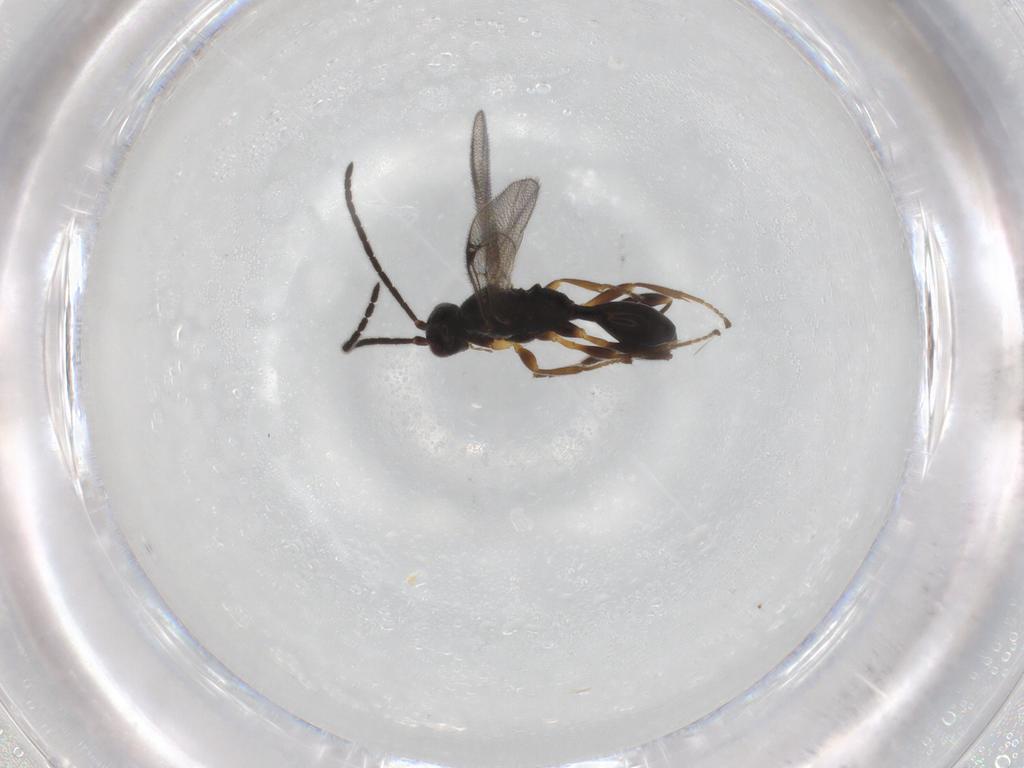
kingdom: Animalia
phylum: Arthropoda
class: Insecta
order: Hymenoptera
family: Proctotrupidae
